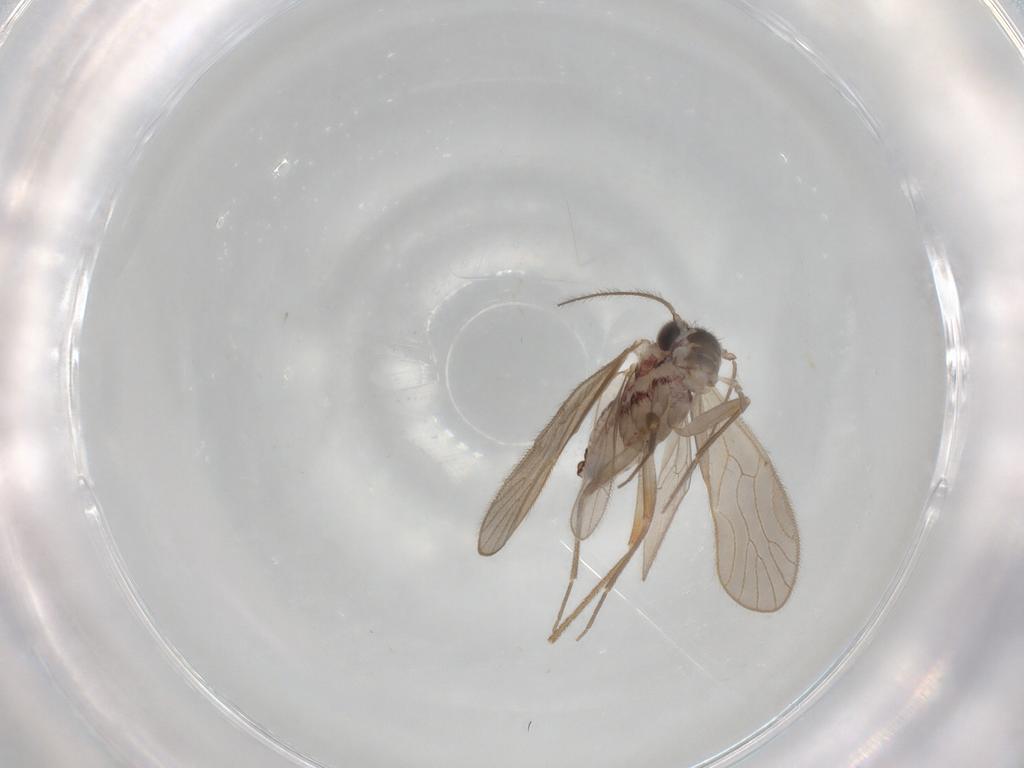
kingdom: Animalia
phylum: Arthropoda
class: Insecta
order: Psocodea
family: Mesopsocidae
